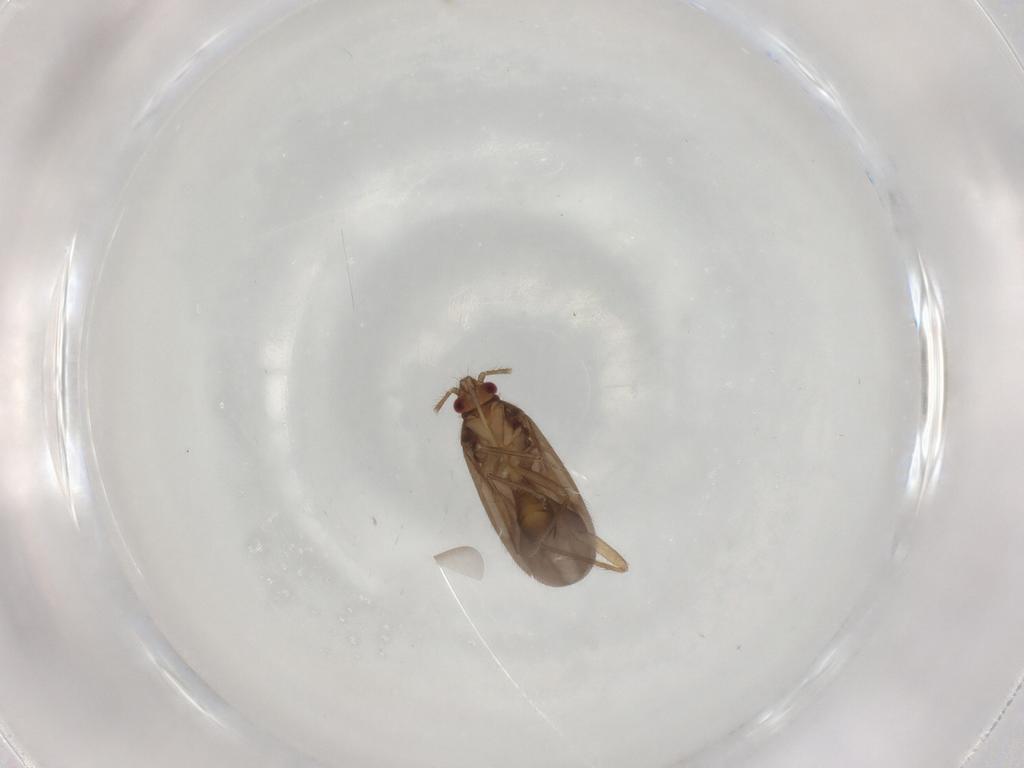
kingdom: Animalia
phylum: Arthropoda
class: Insecta
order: Hemiptera
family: Ceratocombidae
